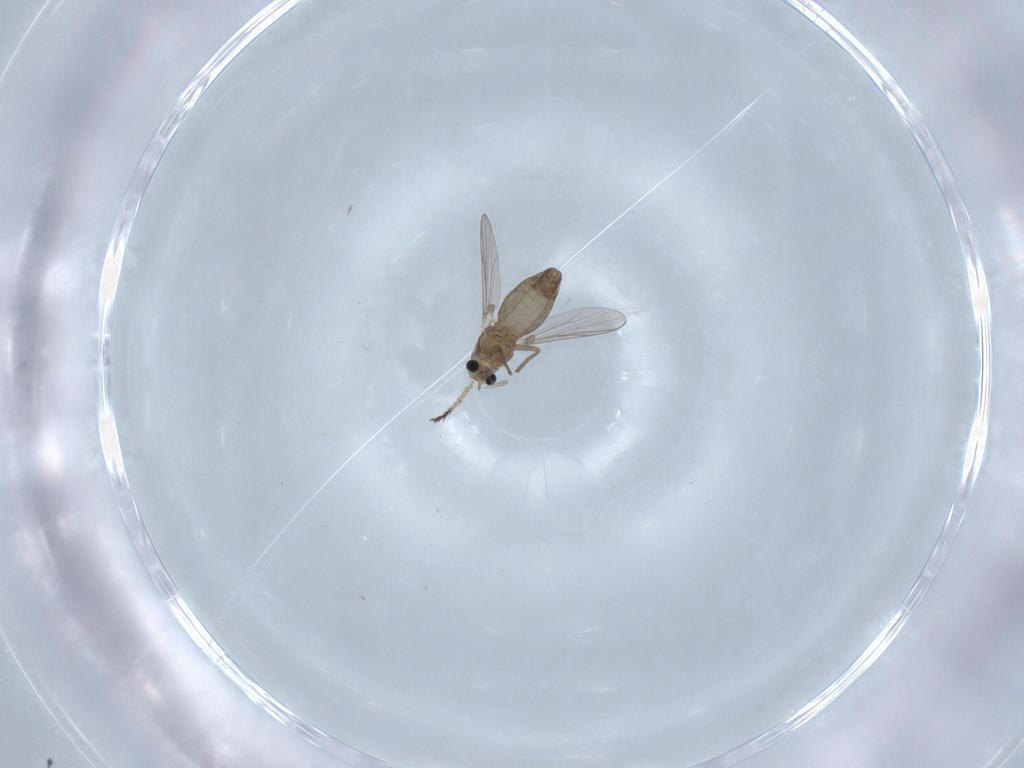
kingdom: Animalia
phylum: Arthropoda
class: Insecta
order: Diptera
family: Chironomidae
